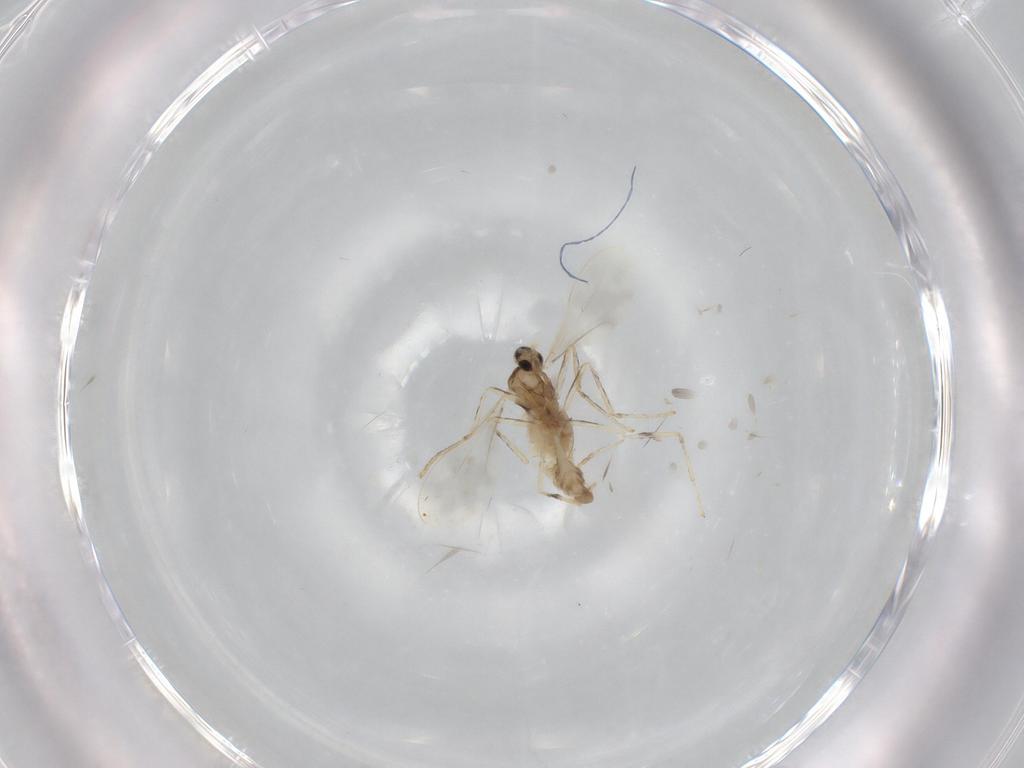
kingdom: Animalia
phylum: Arthropoda
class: Insecta
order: Diptera
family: Cecidomyiidae
